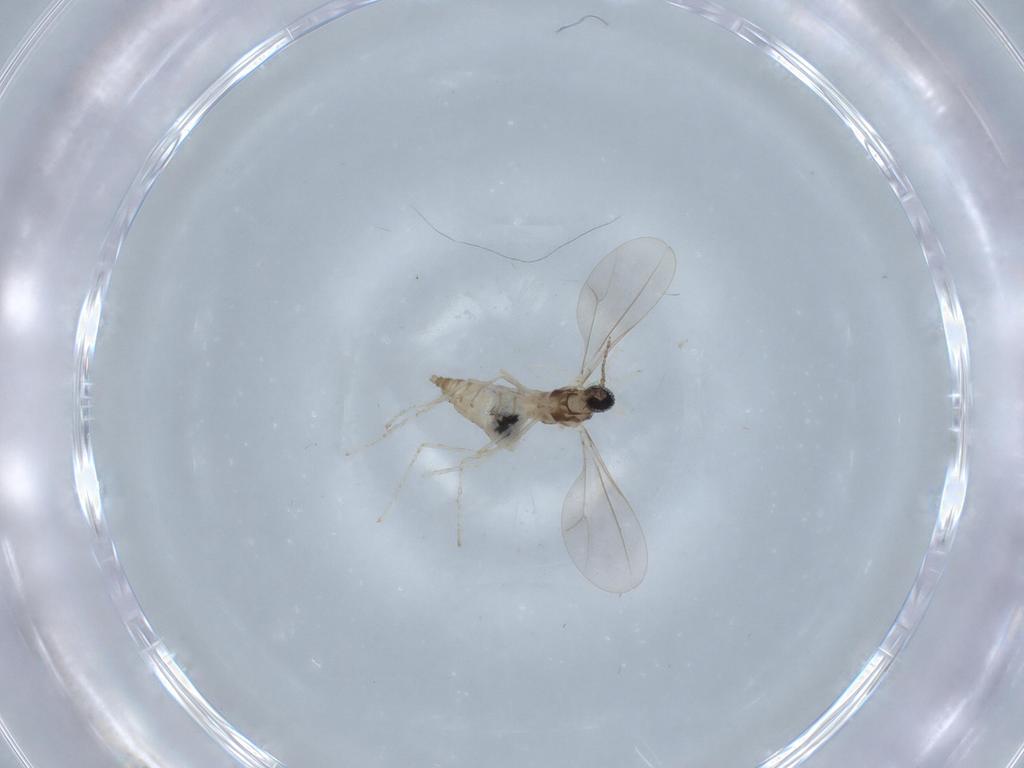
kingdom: Animalia
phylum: Arthropoda
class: Insecta
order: Diptera
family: Cecidomyiidae
